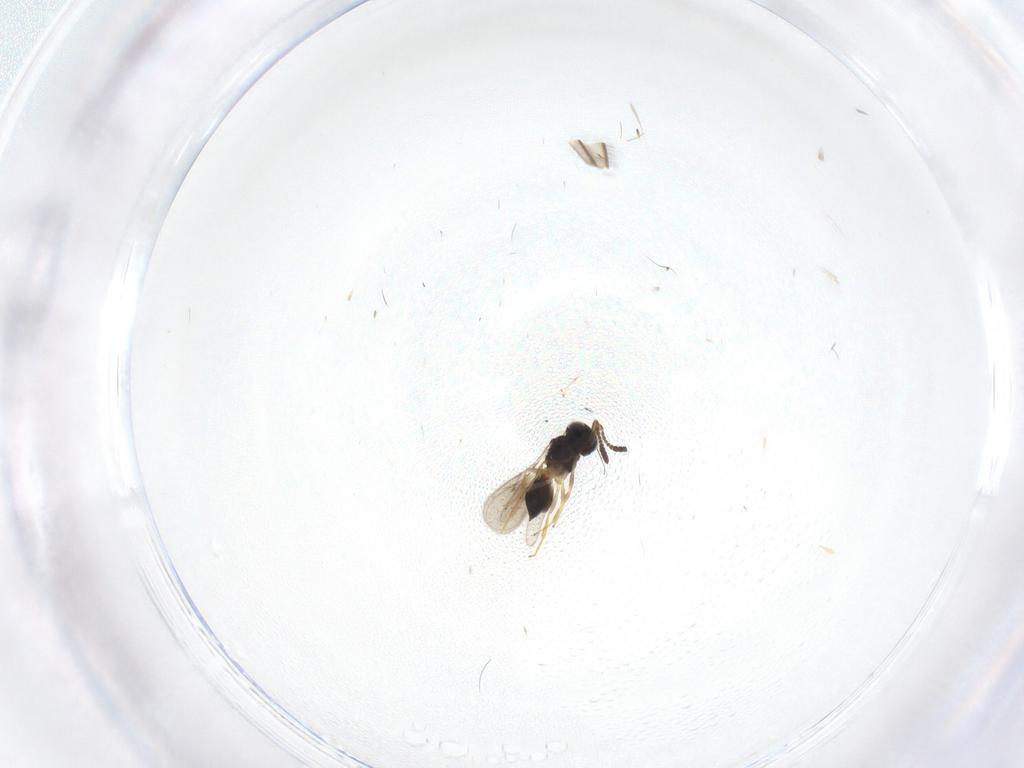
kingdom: Animalia
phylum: Arthropoda
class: Insecta
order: Hymenoptera
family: Scelionidae
